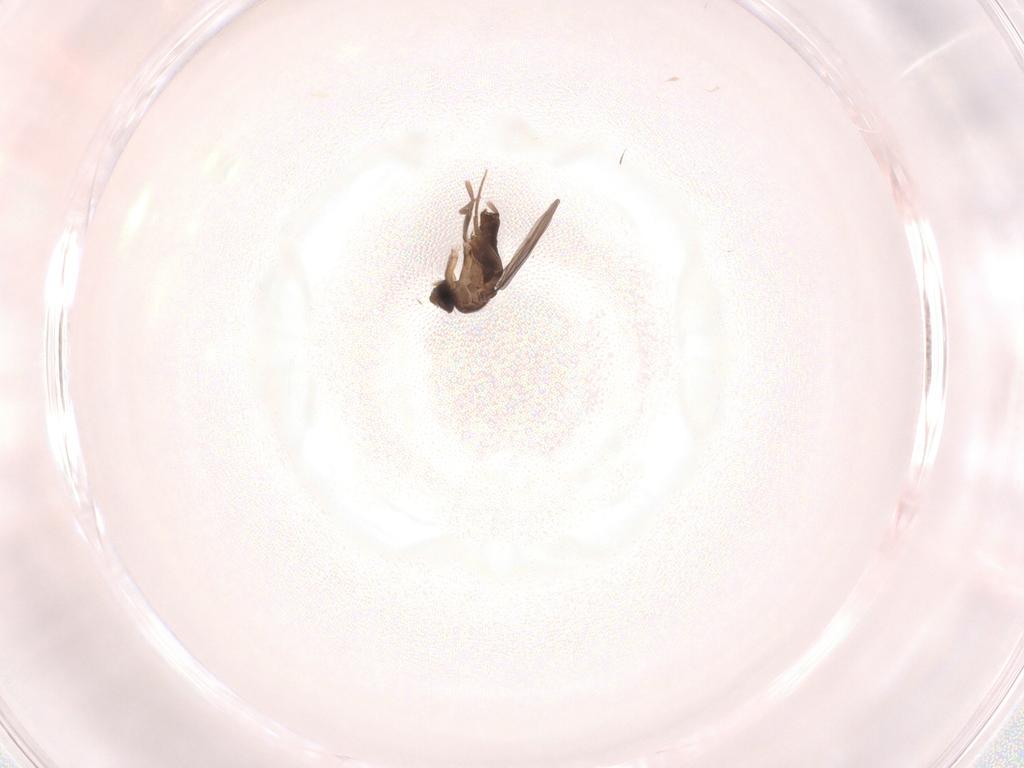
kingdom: Animalia
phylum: Arthropoda
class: Insecta
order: Diptera
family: Phoridae
